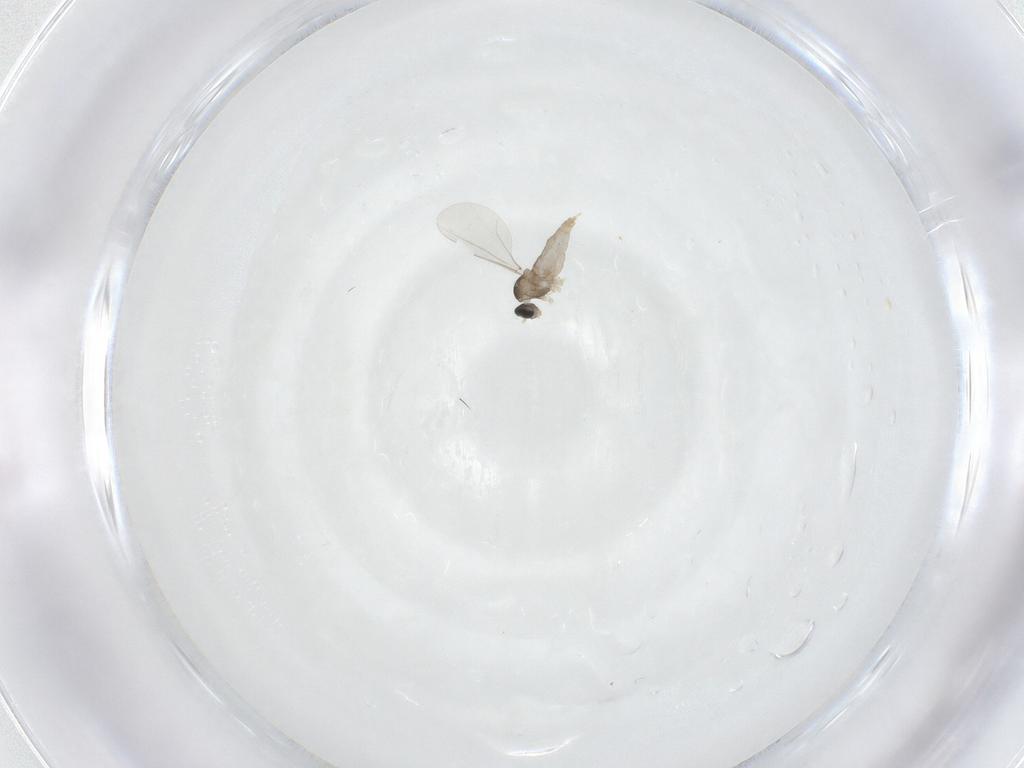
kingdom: Animalia
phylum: Arthropoda
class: Insecta
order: Diptera
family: Cecidomyiidae
